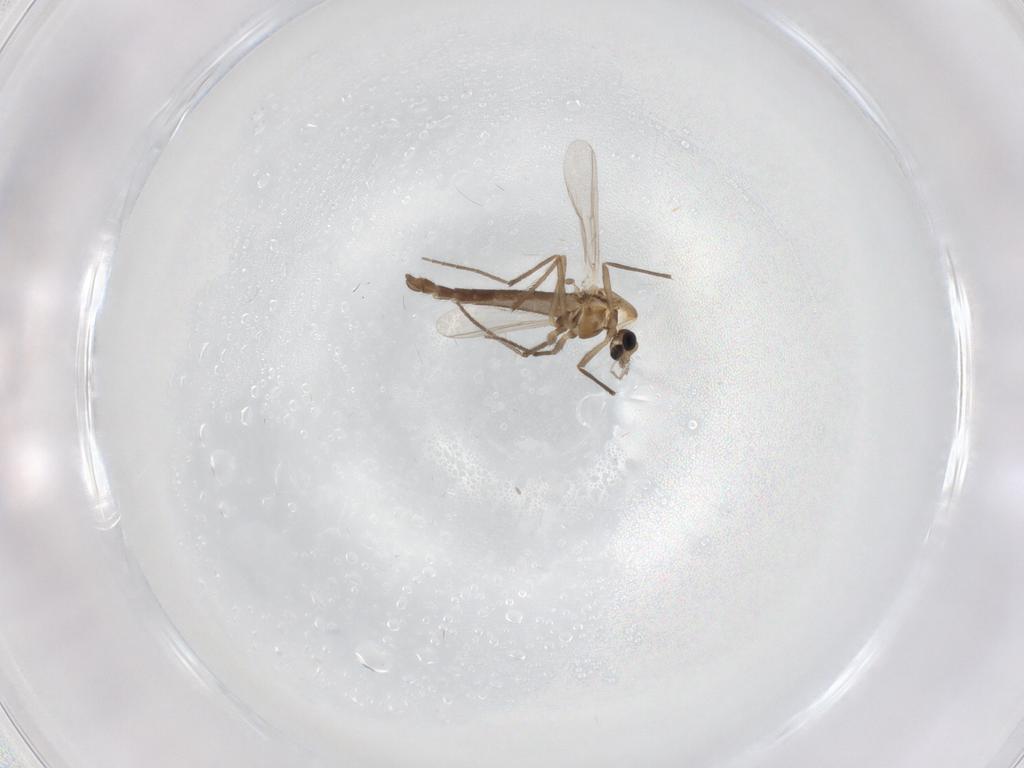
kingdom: Animalia
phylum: Arthropoda
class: Insecta
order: Diptera
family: Chironomidae
